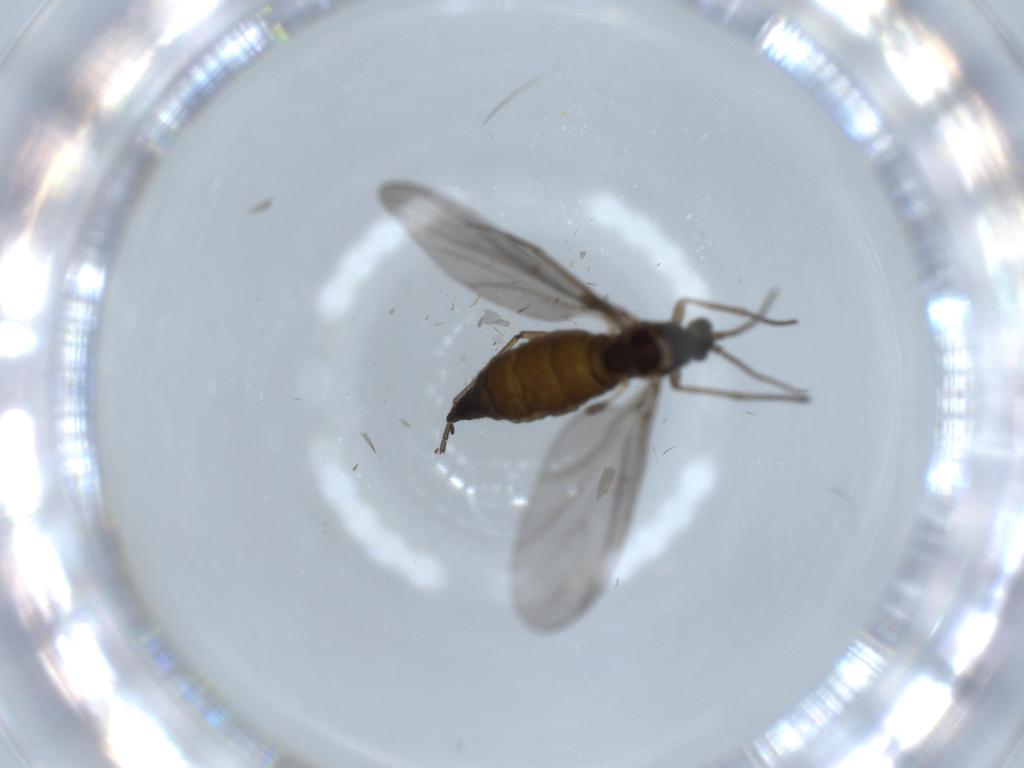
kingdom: Animalia
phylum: Arthropoda
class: Insecta
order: Diptera
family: Sciaridae
